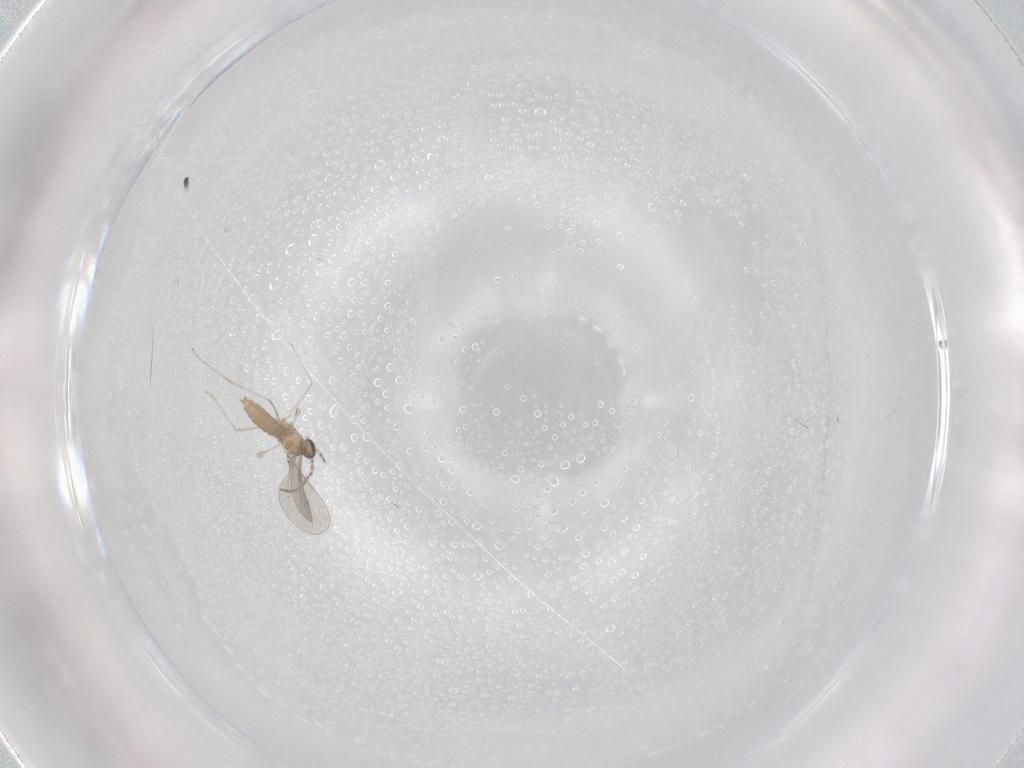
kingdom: Animalia
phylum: Arthropoda
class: Insecta
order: Diptera
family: Cecidomyiidae
